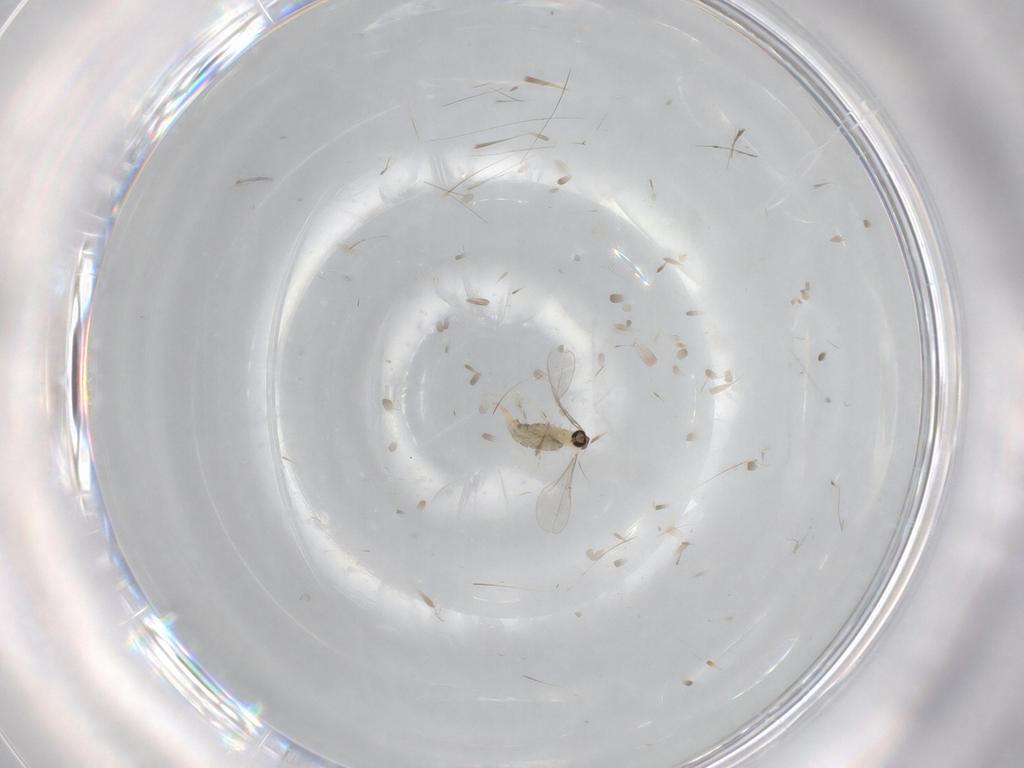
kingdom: Animalia
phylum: Arthropoda
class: Insecta
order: Diptera
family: Cecidomyiidae
